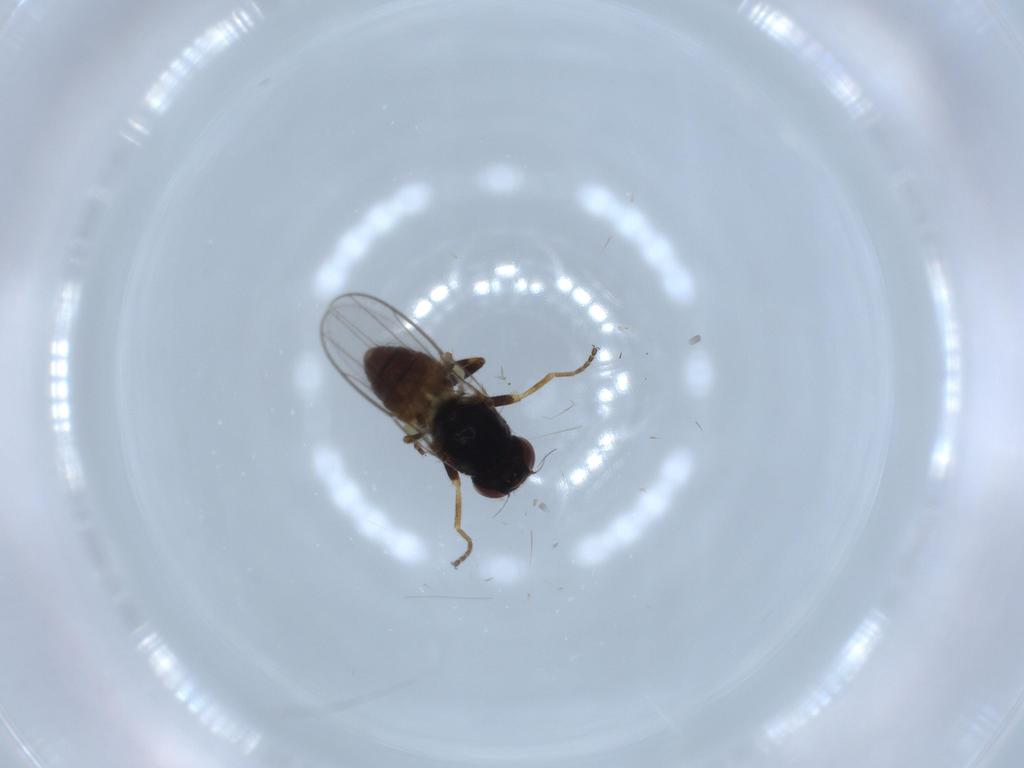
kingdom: Animalia
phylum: Arthropoda
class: Insecta
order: Diptera
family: Chloropidae
